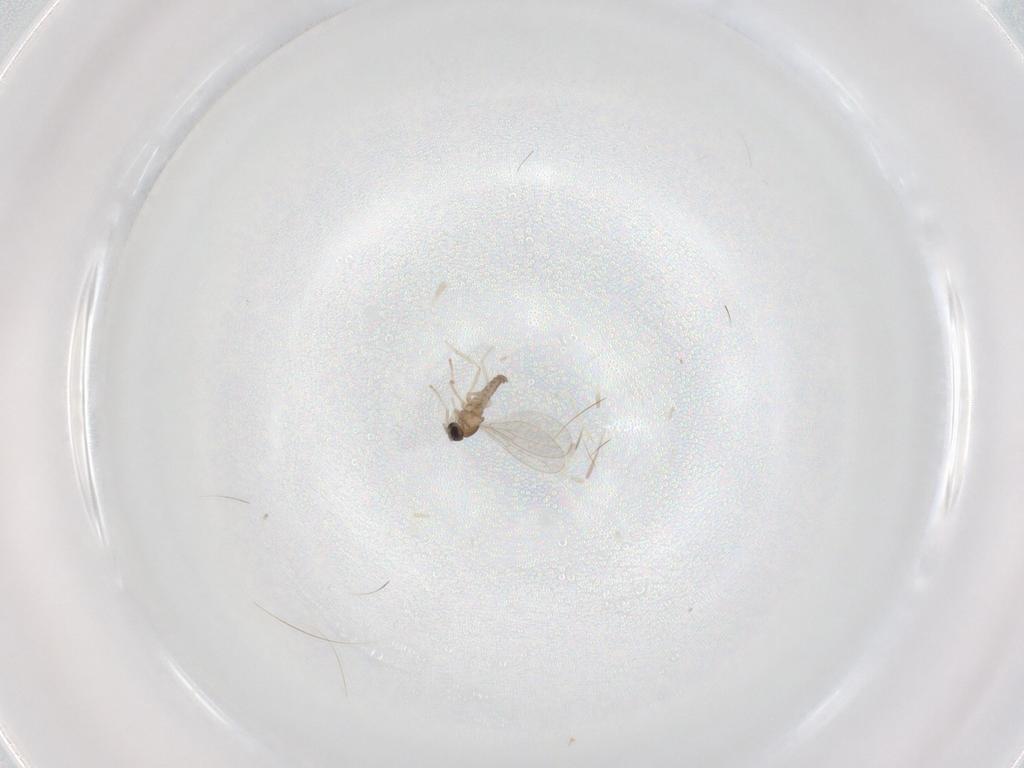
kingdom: Animalia
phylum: Arthropoda
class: Insecta
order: Diptera
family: Cecidomyiidae
